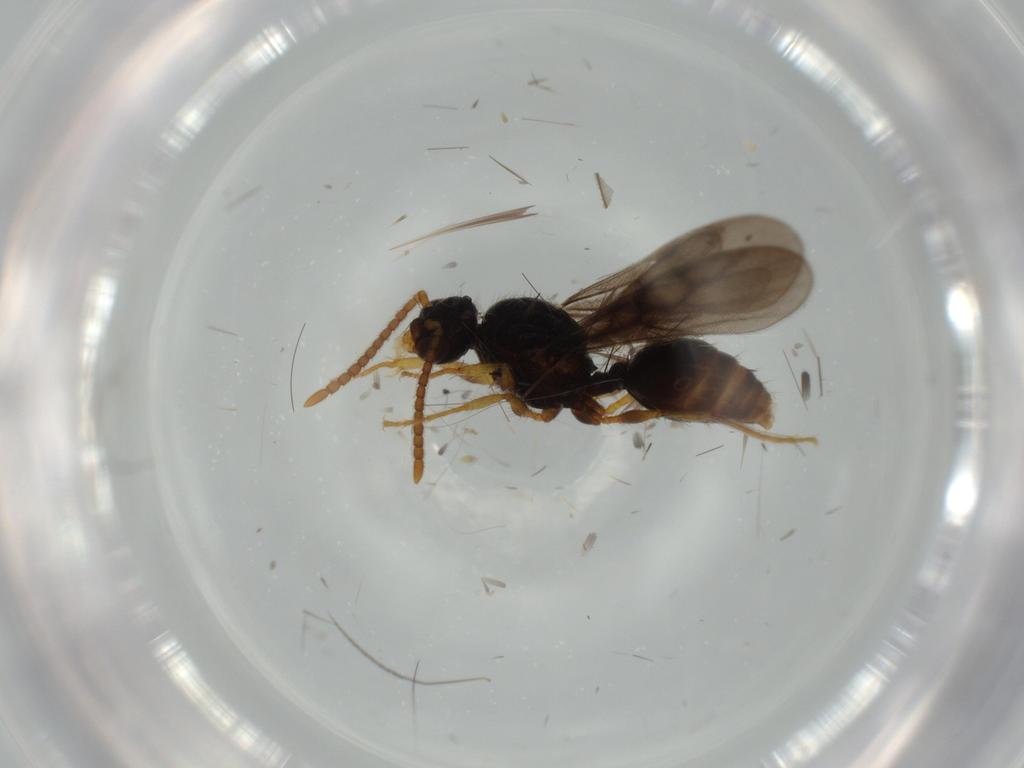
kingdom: Animalia
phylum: Arthropoda
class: Insecta
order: Hymenoptera
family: Formicidae
